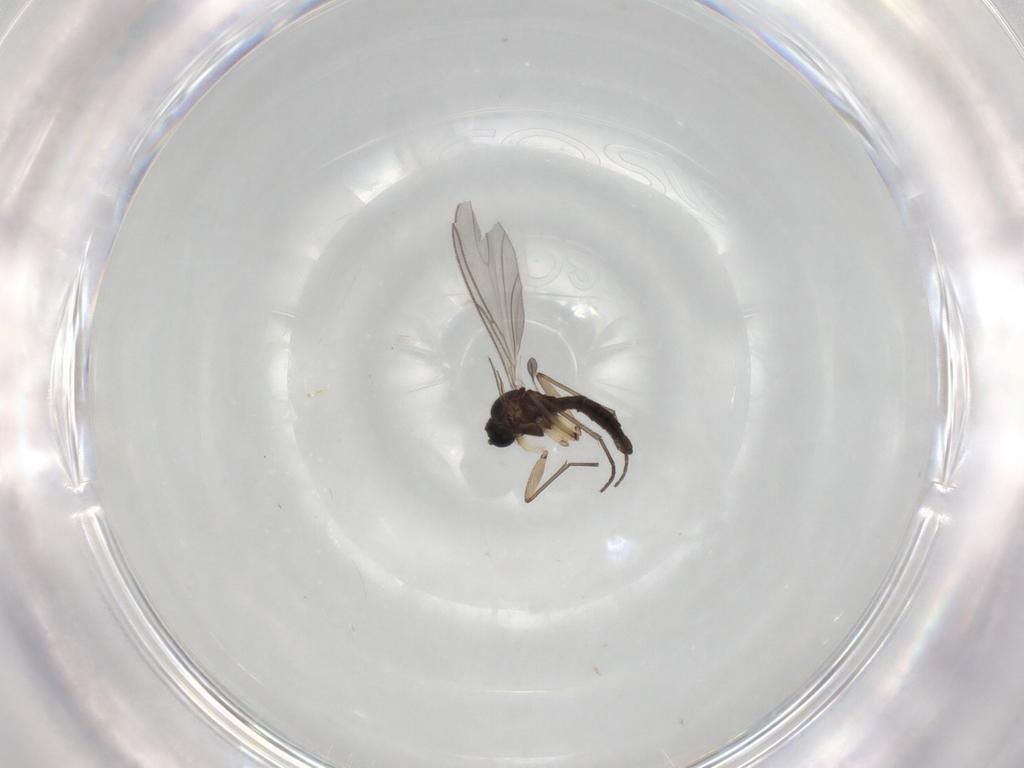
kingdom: Animalia
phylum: Arthropoda
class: Insecta
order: Diptera
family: Sciaridae
